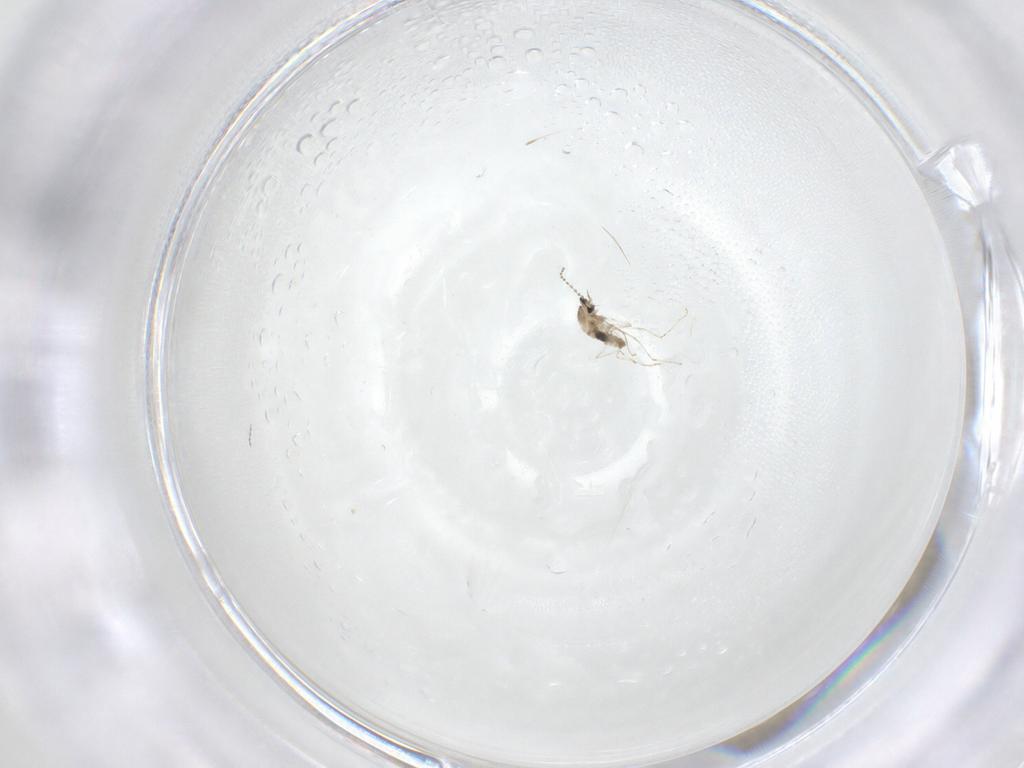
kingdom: Animalia
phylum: Arthropoda
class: Insecta
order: Diptera
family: Cecidomyiidae
